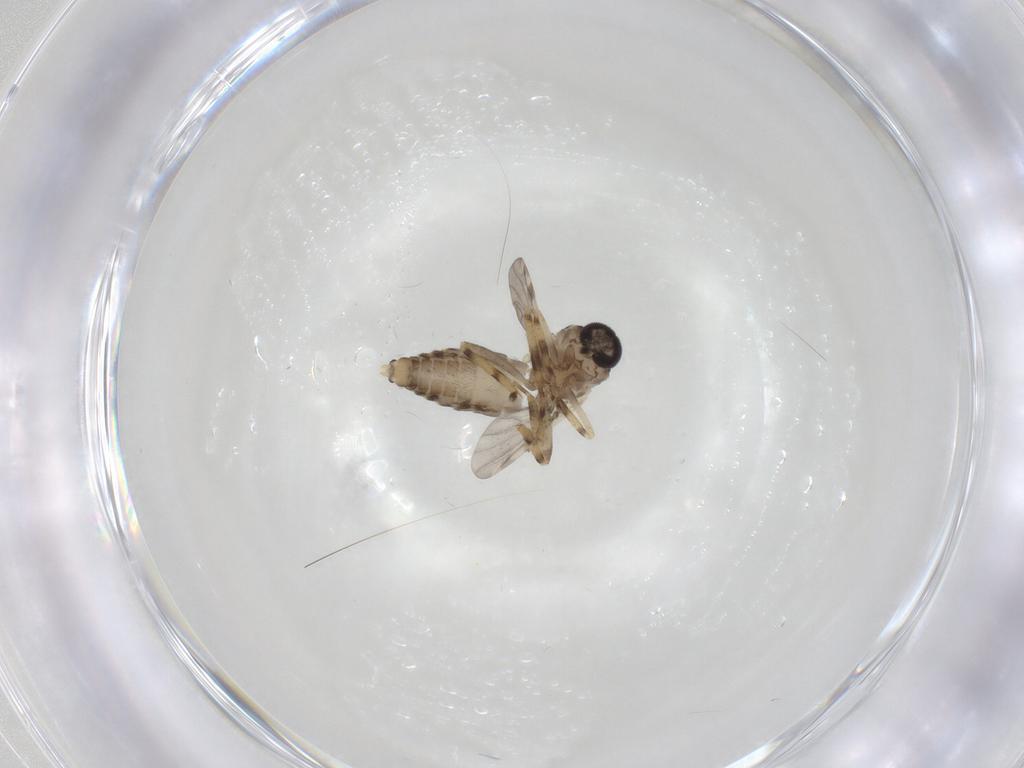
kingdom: Animalia
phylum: Arthropoda
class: Insecta
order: Diptera
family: Ceratopogonidae
